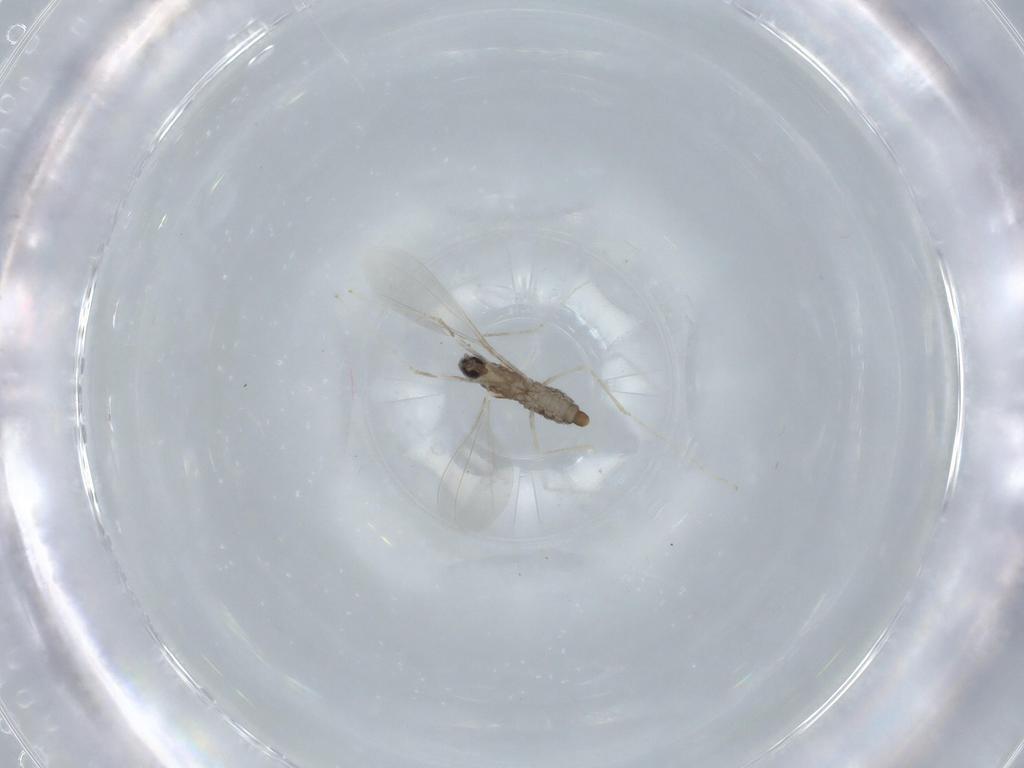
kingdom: Animalia
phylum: Arthropoda
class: Insecta
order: Diptera
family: Cecidomyiidae
